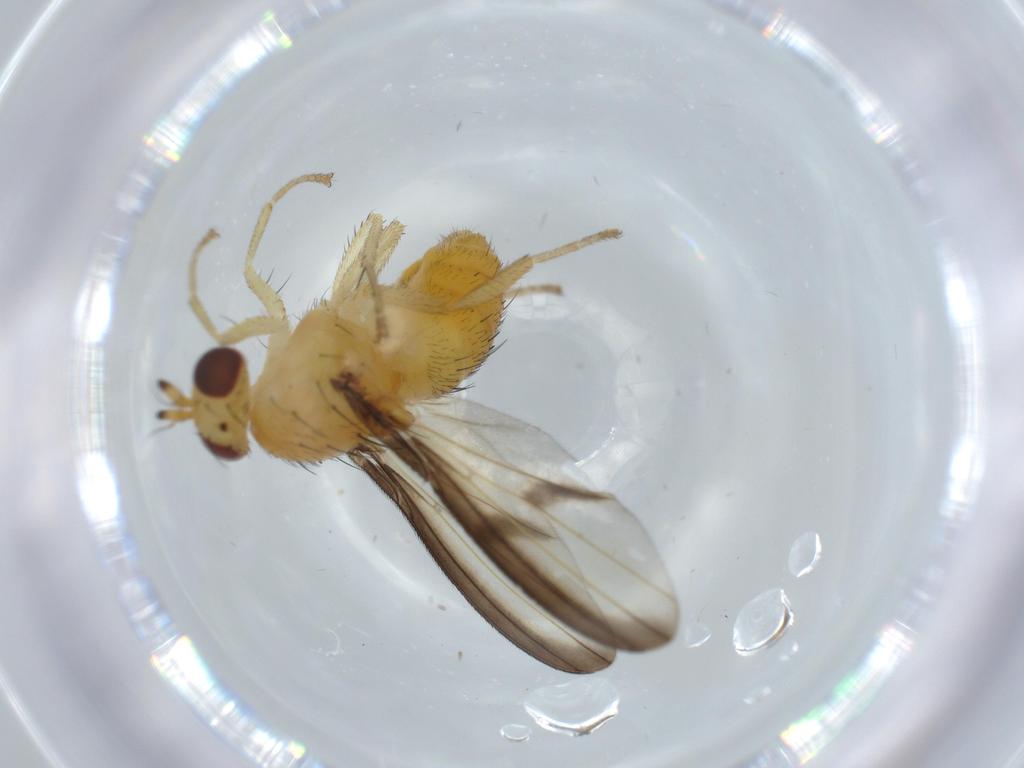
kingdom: Animalia
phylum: Arthropoda
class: Insecta
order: Diptera
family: Lauxaniidae
